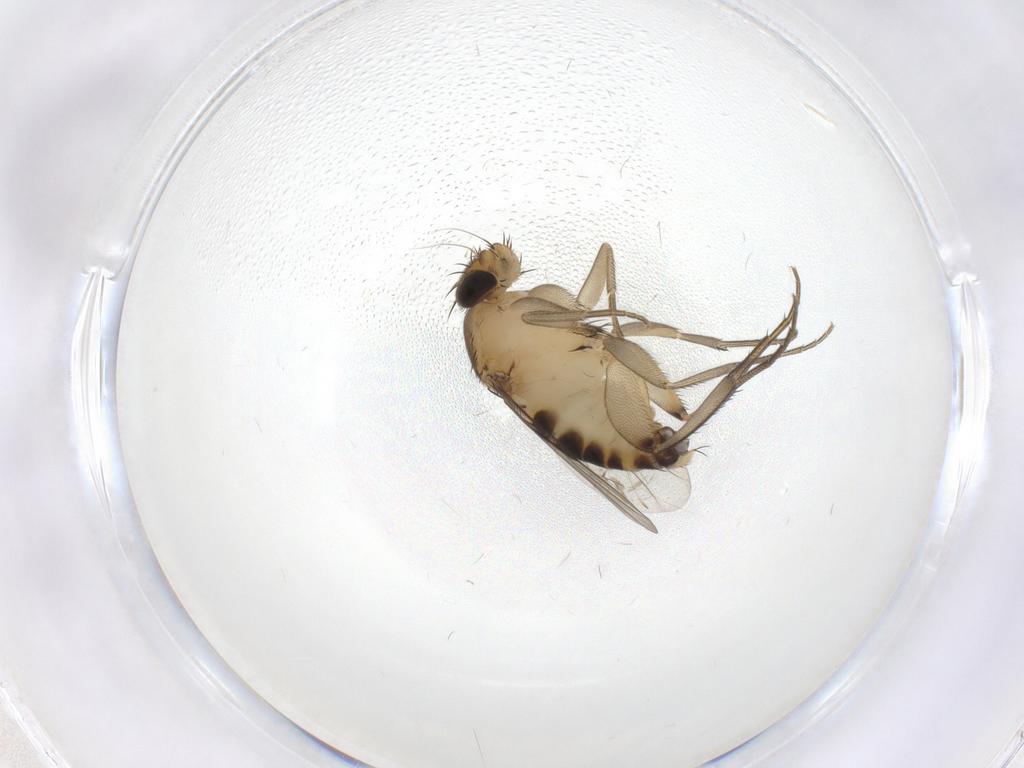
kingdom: Animalia
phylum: Arthropoda
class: Insecta
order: Diptera
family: Phoridae
